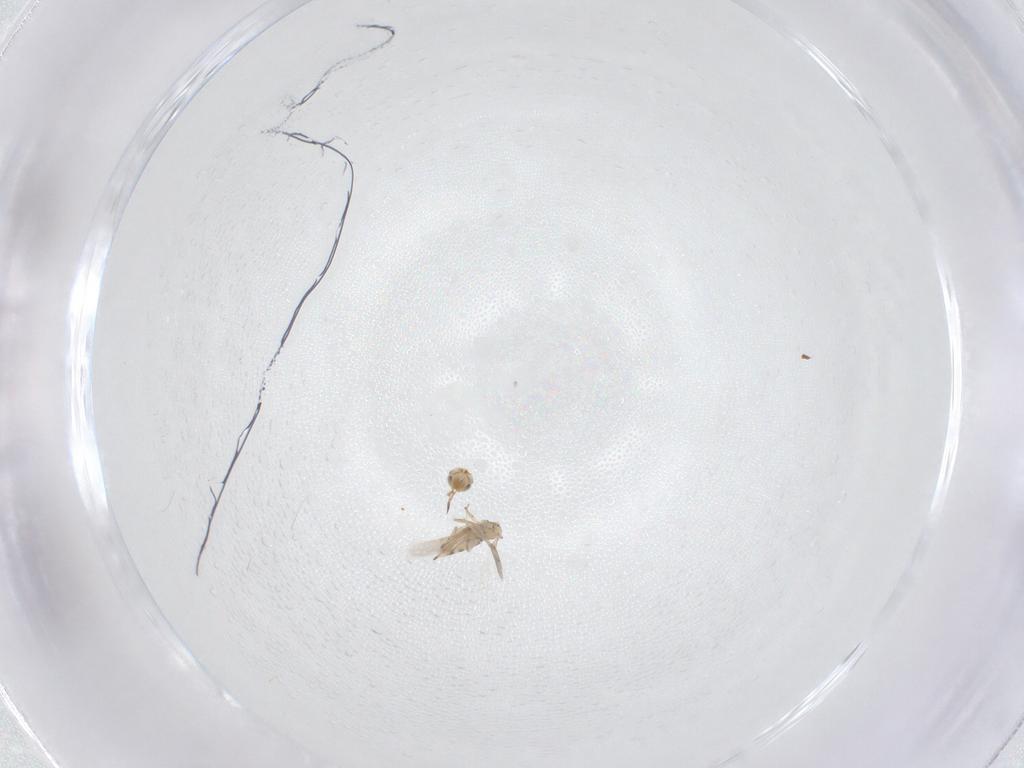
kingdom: Animalia
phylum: Arthropoda
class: Insecta
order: Hymenoptera
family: Aphelinidae
